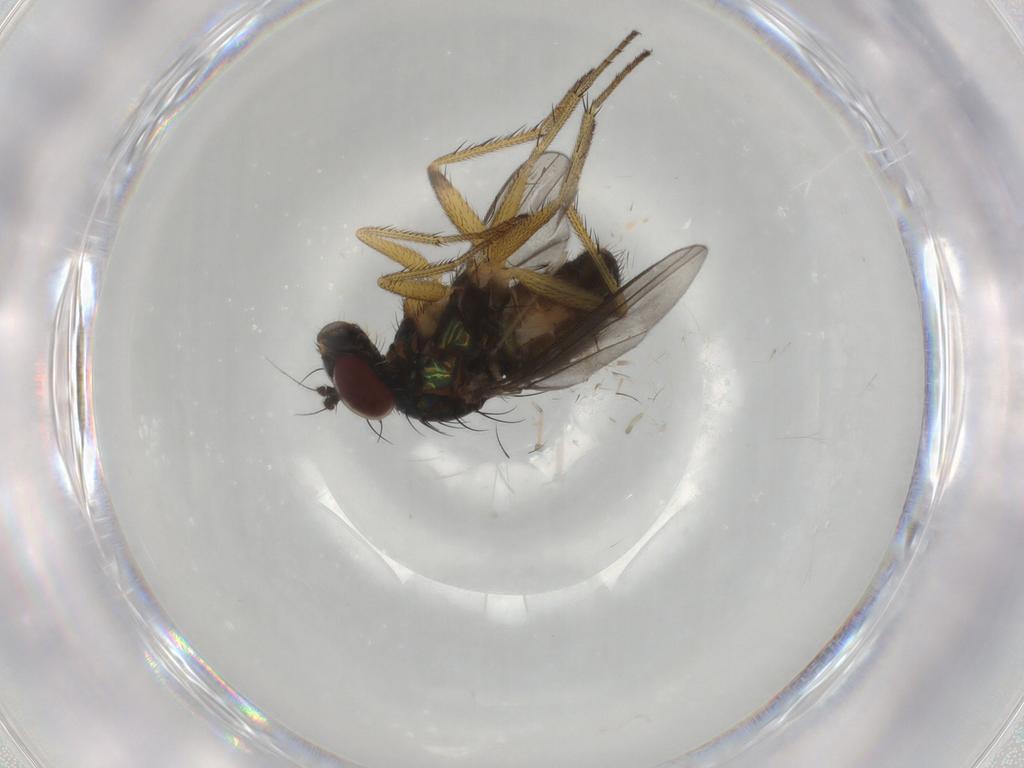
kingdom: Animalia
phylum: Arthropoda
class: Insecta
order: Diptera
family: Dolichopodidae
